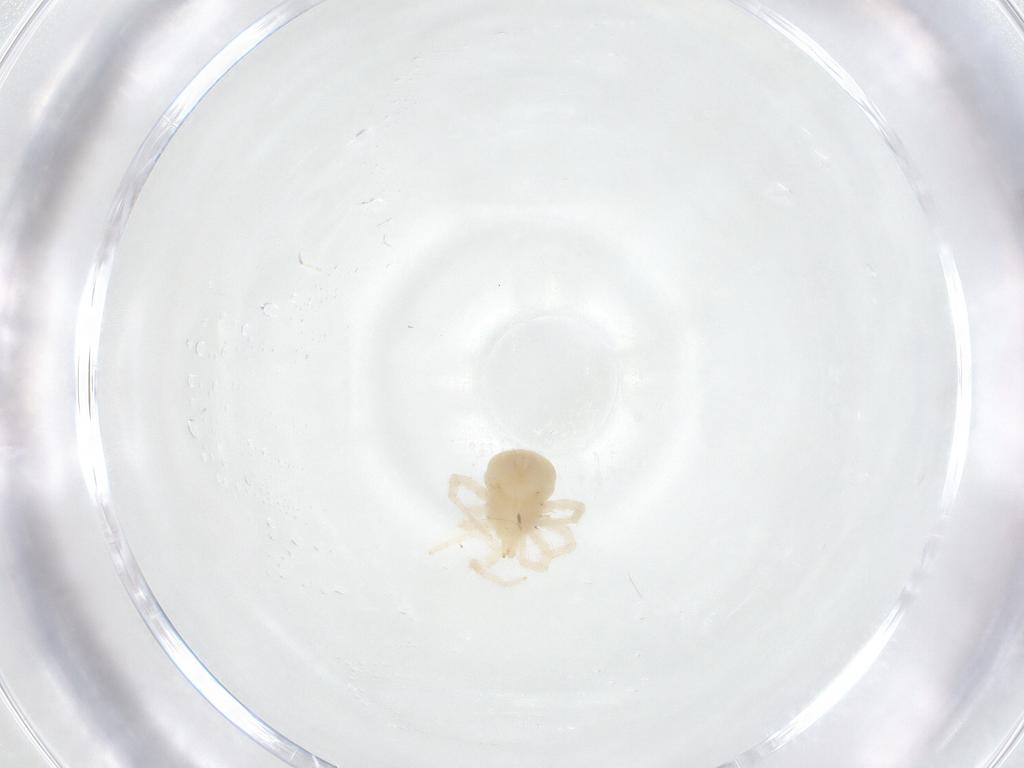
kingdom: Animalia
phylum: Arthropoda
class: Arachnida
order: Trombidiformes
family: Anystidae
